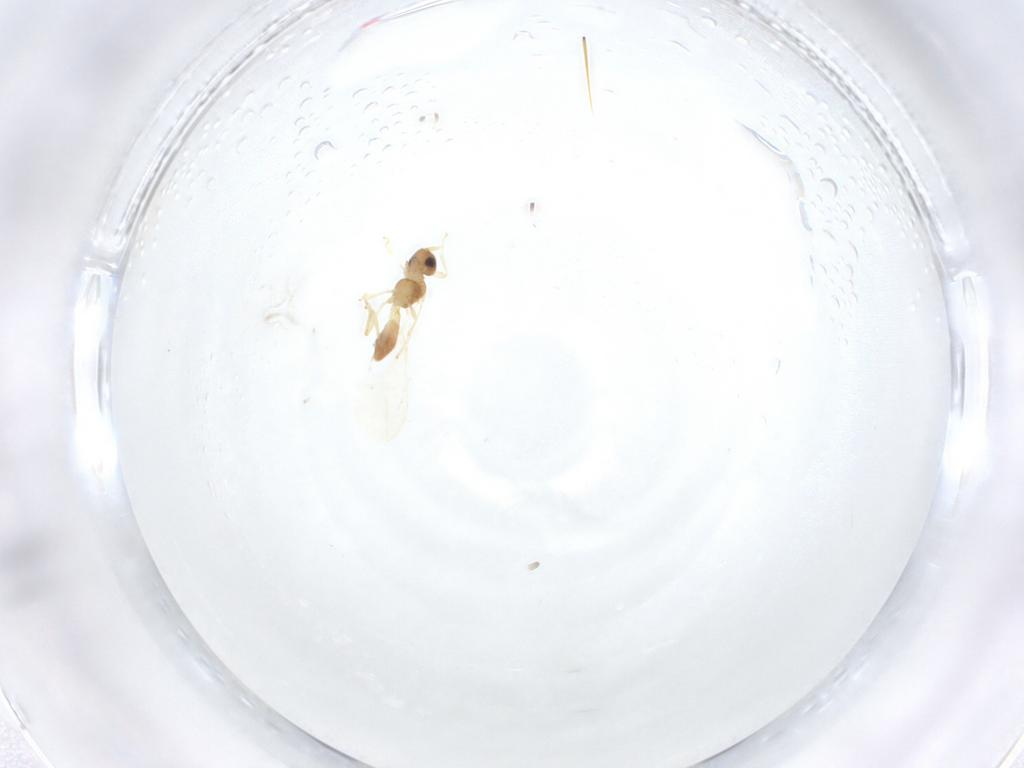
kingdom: Animalia
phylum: Arthropoda
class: Insecta
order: Hymenoptera
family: Braconidae
